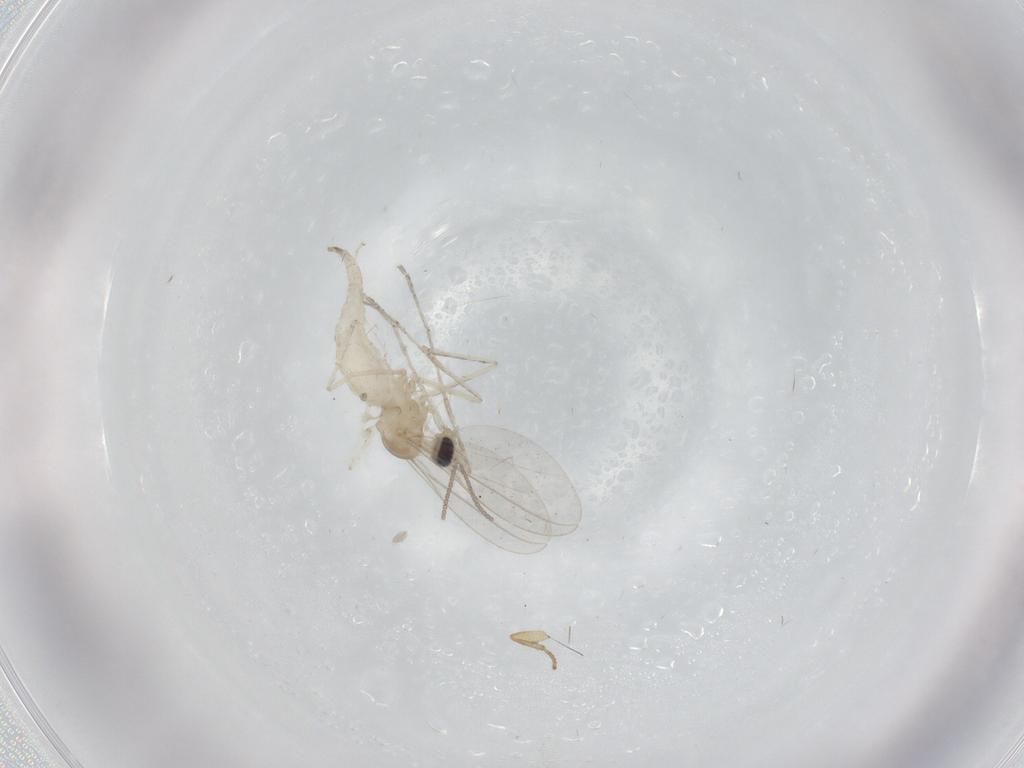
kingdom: Animalia
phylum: Arthropoda
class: Insecta
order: Diptera
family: Cecidomyiidae
